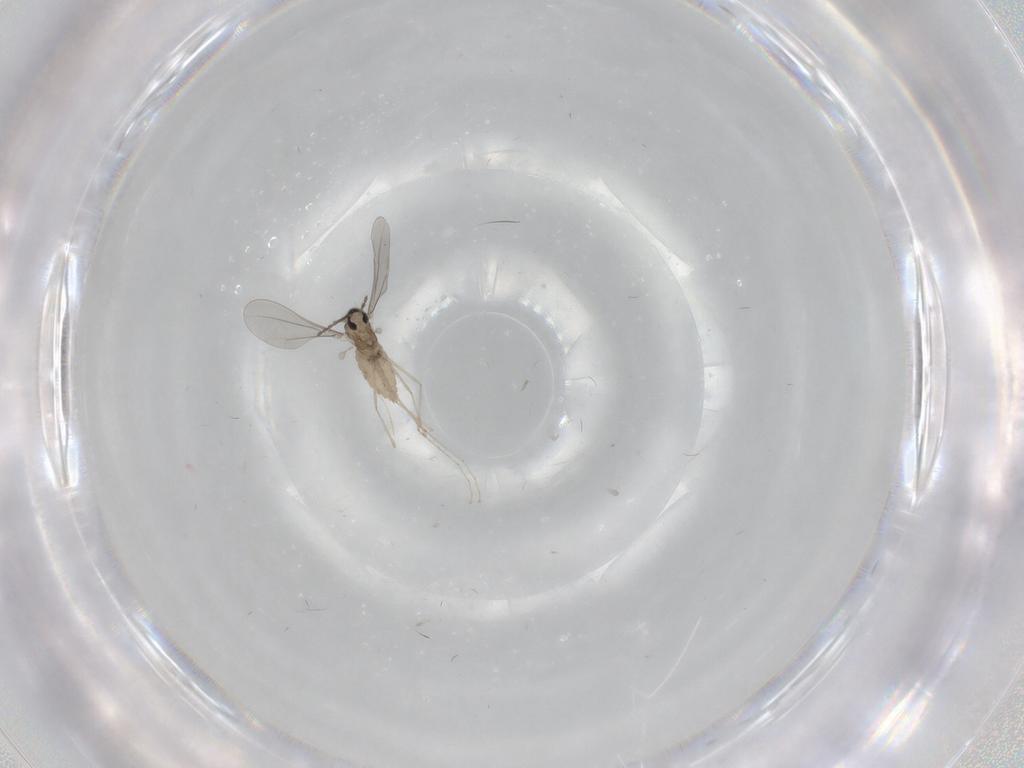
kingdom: Animalia
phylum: Arthropoda
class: Insecta
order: Diptera
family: Cecidomyiidae
